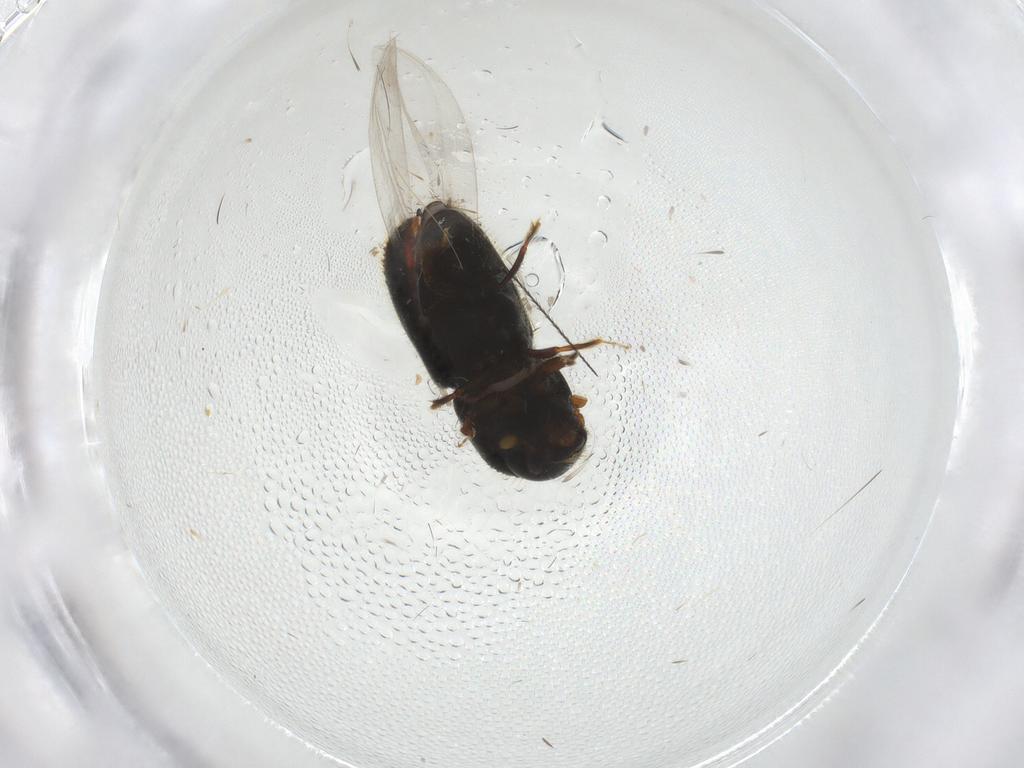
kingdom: Animalia
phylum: Arthropoda
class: Insecta
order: Coleoptera
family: Curculionidae
